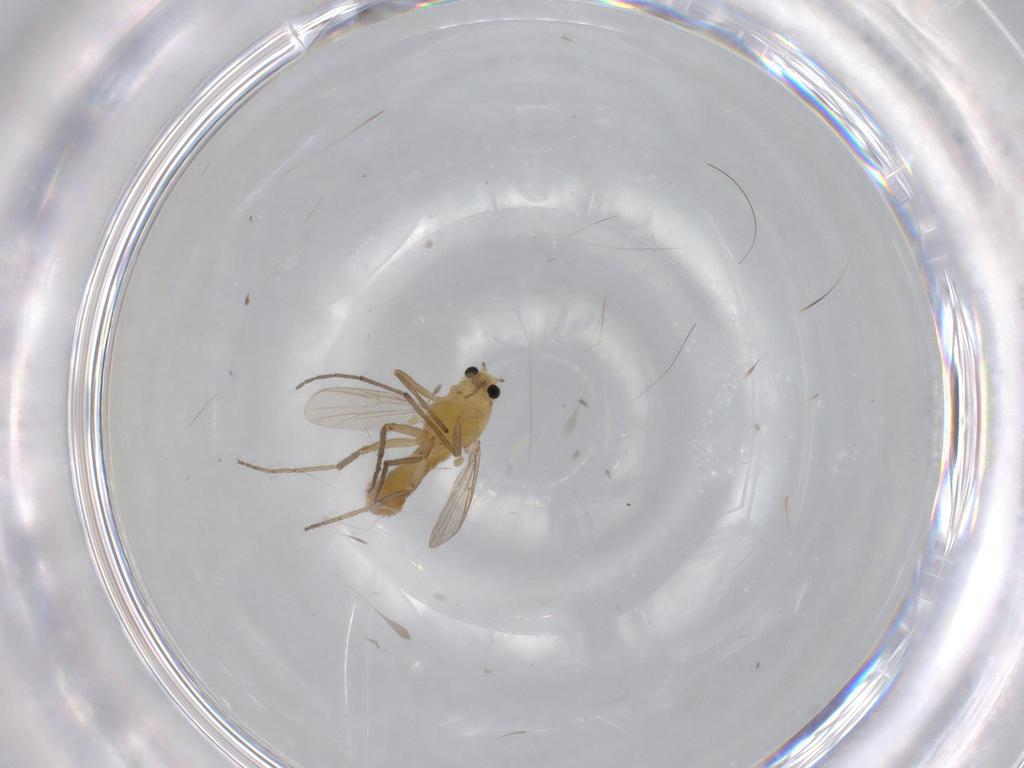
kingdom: Animalia
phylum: Arthropoda
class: Insecta
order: Diptera
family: Chironomidae
